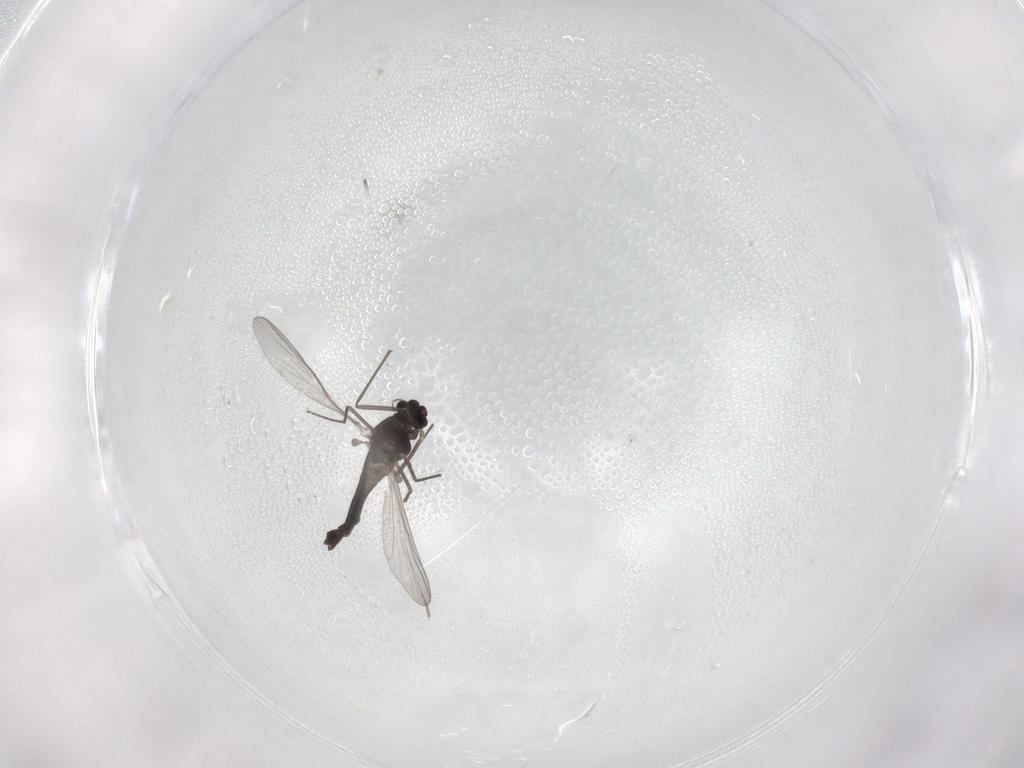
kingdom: Animalia
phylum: Arthropoda
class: Insecta
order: Diptera
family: Chironomidae
